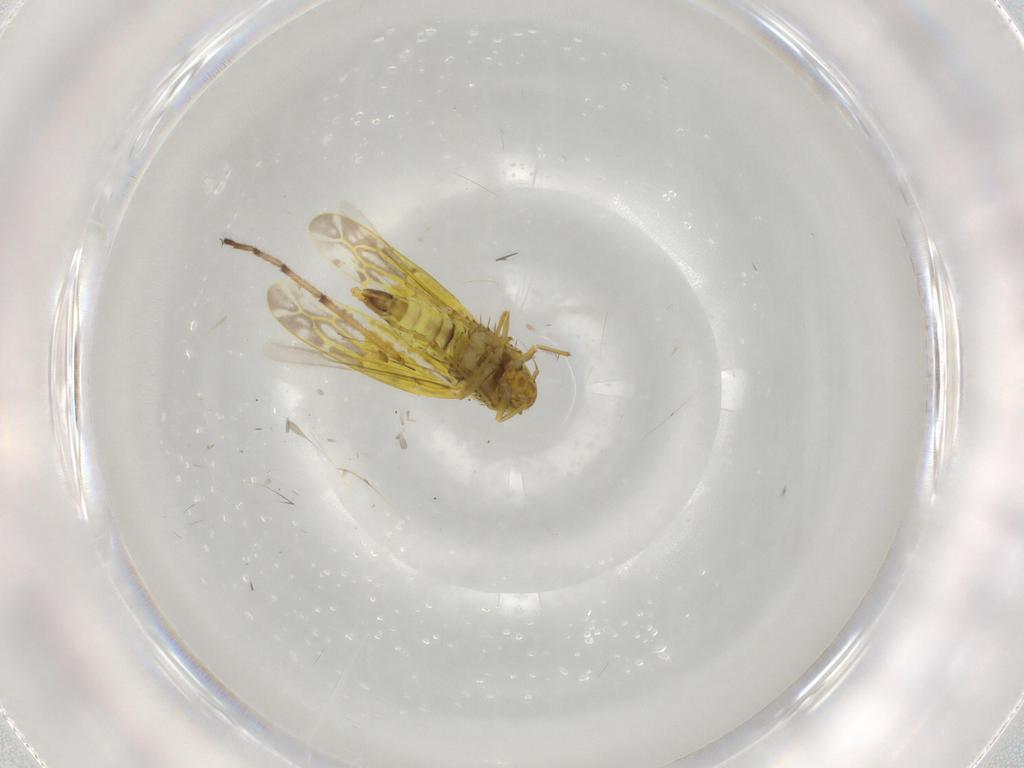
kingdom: Animalia
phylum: Arthropoda
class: Insecta
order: Hemiptera
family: Cicadellidae
